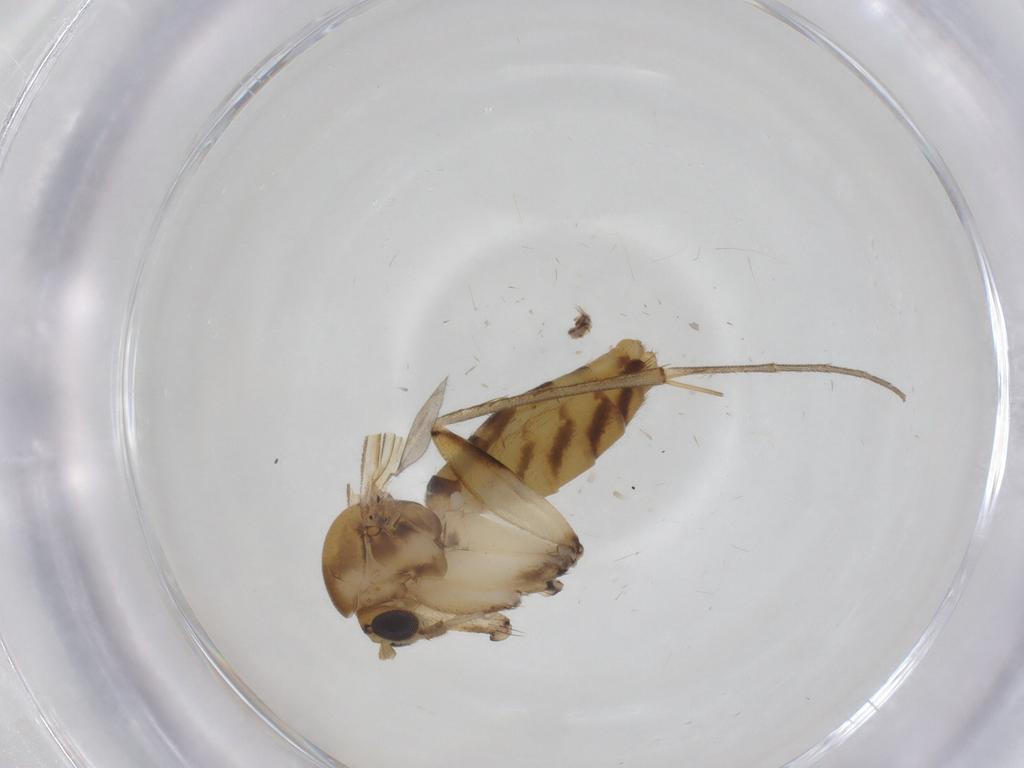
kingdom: Animalia
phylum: Arthropoda
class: Insecta
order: Diptera
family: Mycetophilidae
